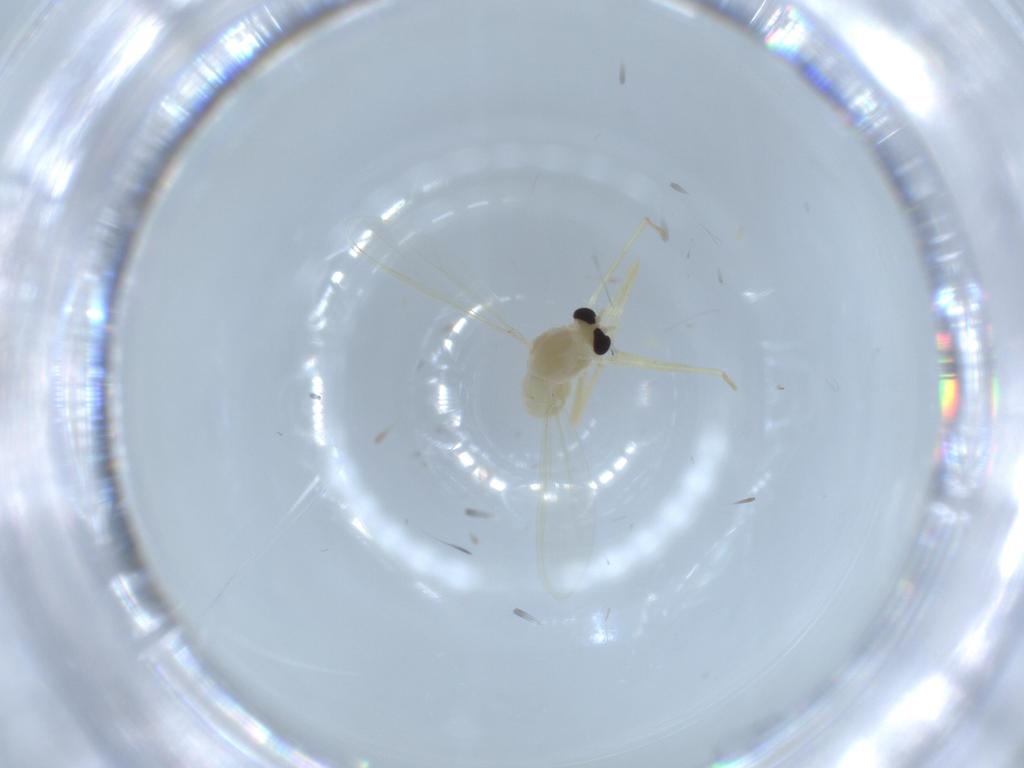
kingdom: Animalia
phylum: Arthropoda
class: Insecta
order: Diptera
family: Chironomidae
